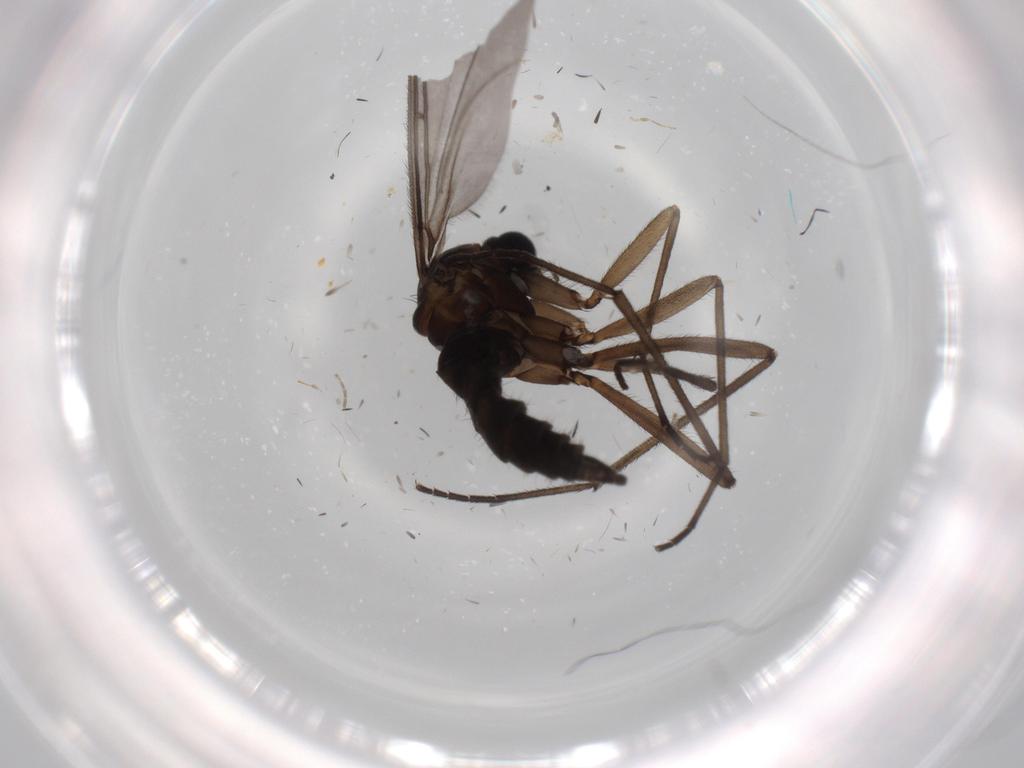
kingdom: Animalia
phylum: Arthropoda
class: Insecta
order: Diptera
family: Sciaridae
